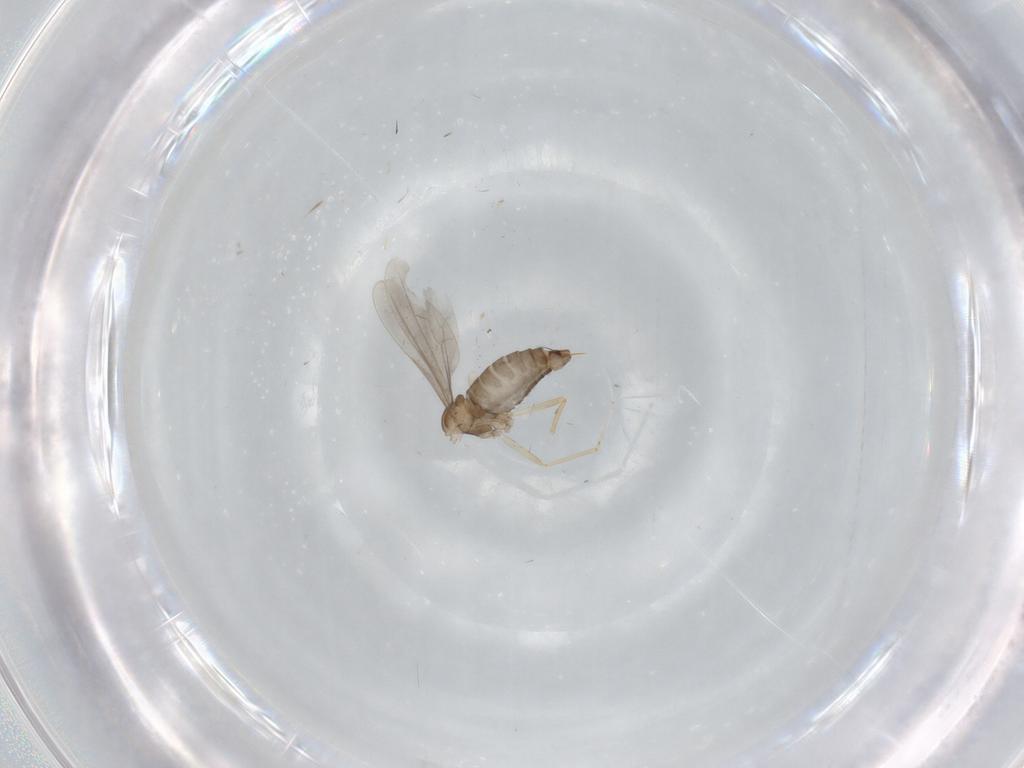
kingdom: Animalia
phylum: Arthropoda
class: Insecta
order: Diptera
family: Cecidomyiidae
